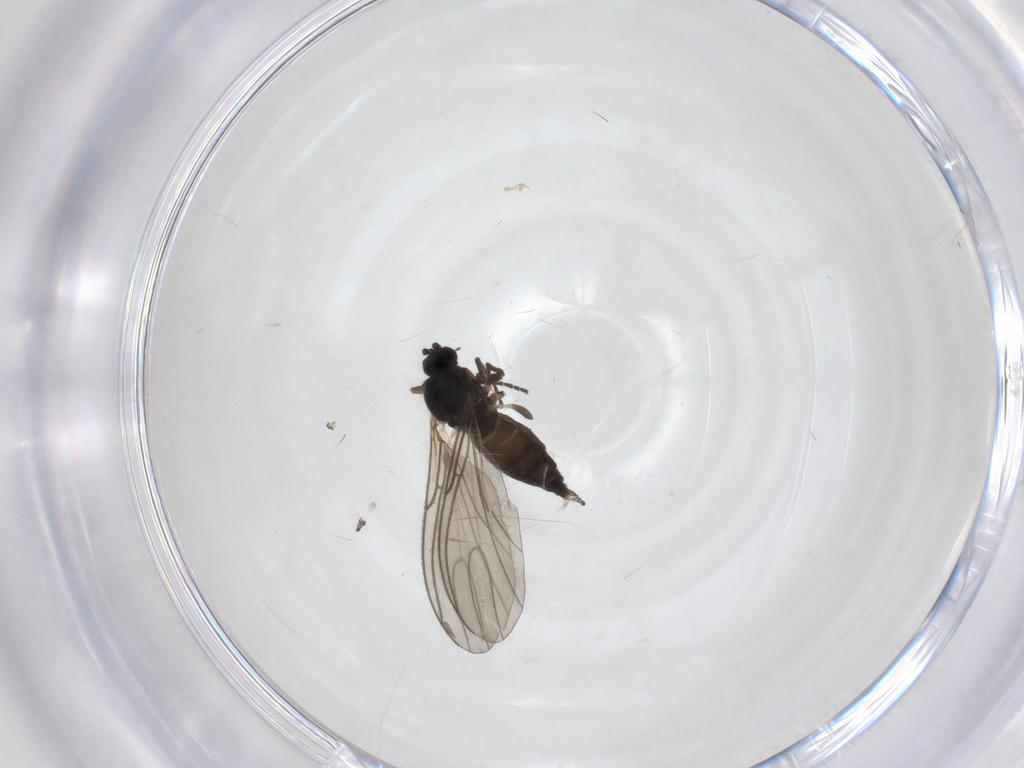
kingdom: Animalia
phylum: Arthropoda
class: Insecta
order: Diptera
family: Sciaridae
